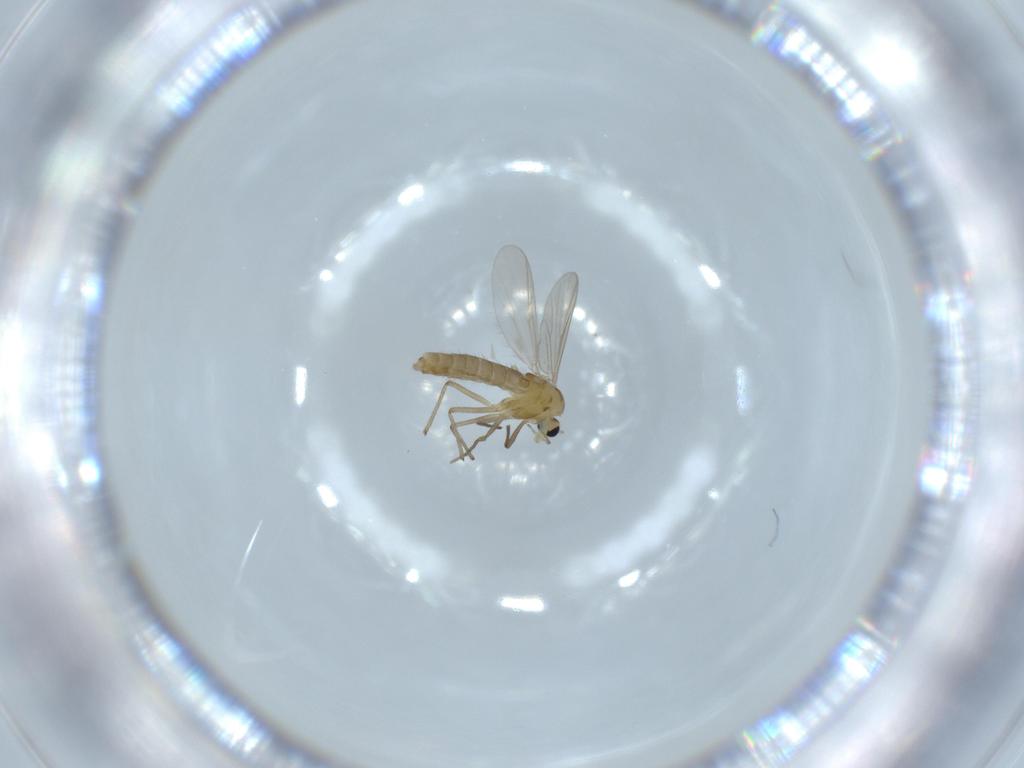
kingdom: Animalia
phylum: Arthropoda
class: Insecta
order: Diptera
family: Chironomidae
